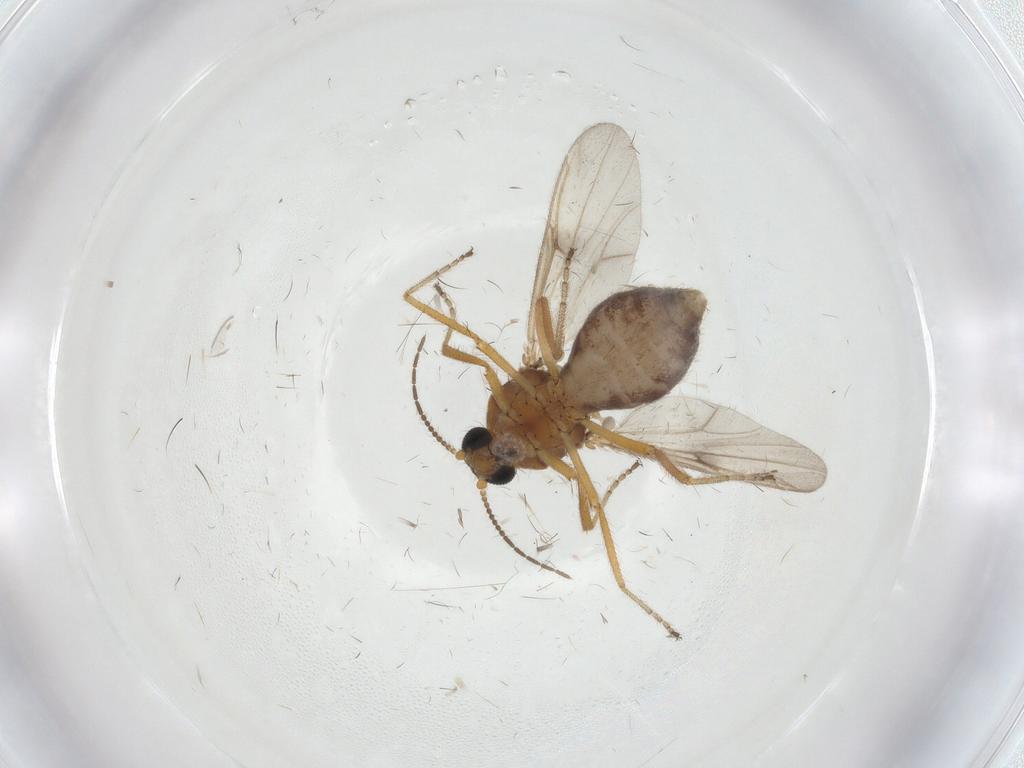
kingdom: Animalia
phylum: Arthropoda
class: Insecta
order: Diptera
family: Ceratopogonidae
